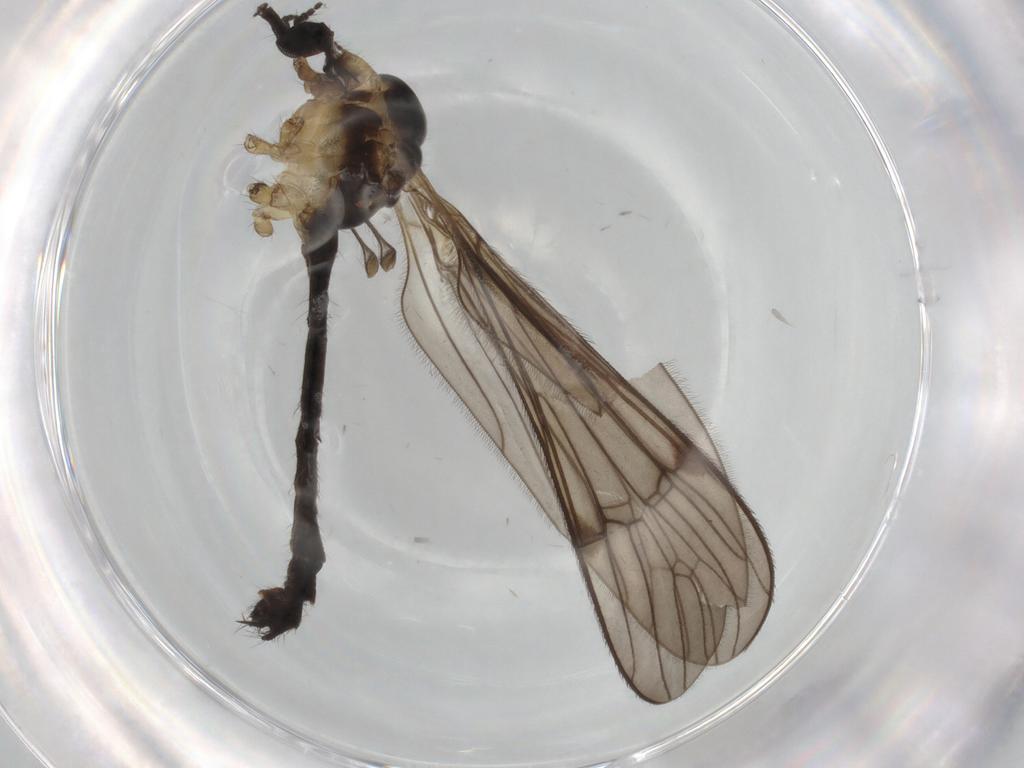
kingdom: Animalia
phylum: Arthropoda
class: Insecta
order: Diptera
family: Limoniidae
